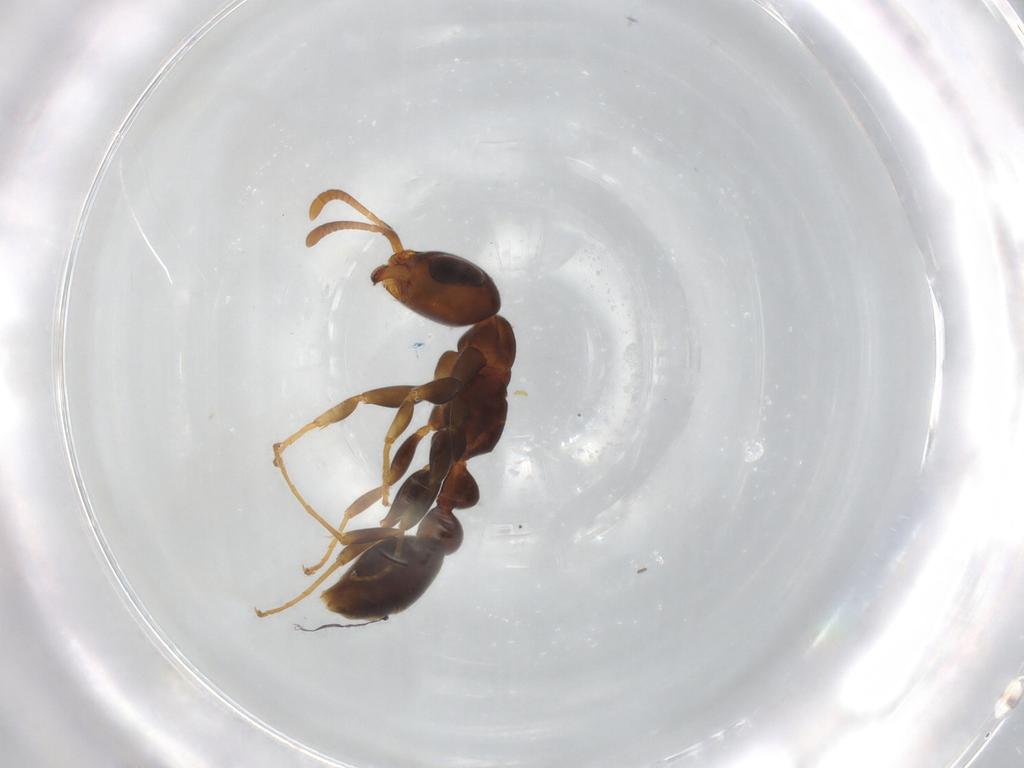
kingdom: Animalia
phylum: Arthropoda
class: Insecta
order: Hymenoptera
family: Formicidae
